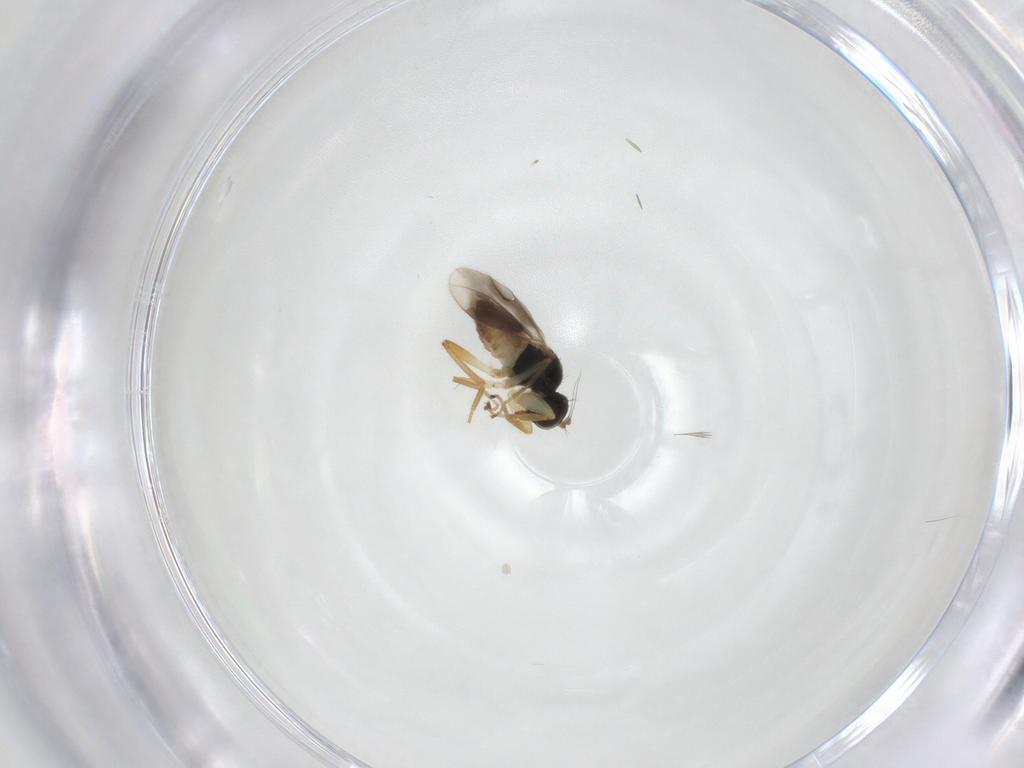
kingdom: Animalia
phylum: Arthropoda
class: Insecta
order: Diptera
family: Hybotidae
